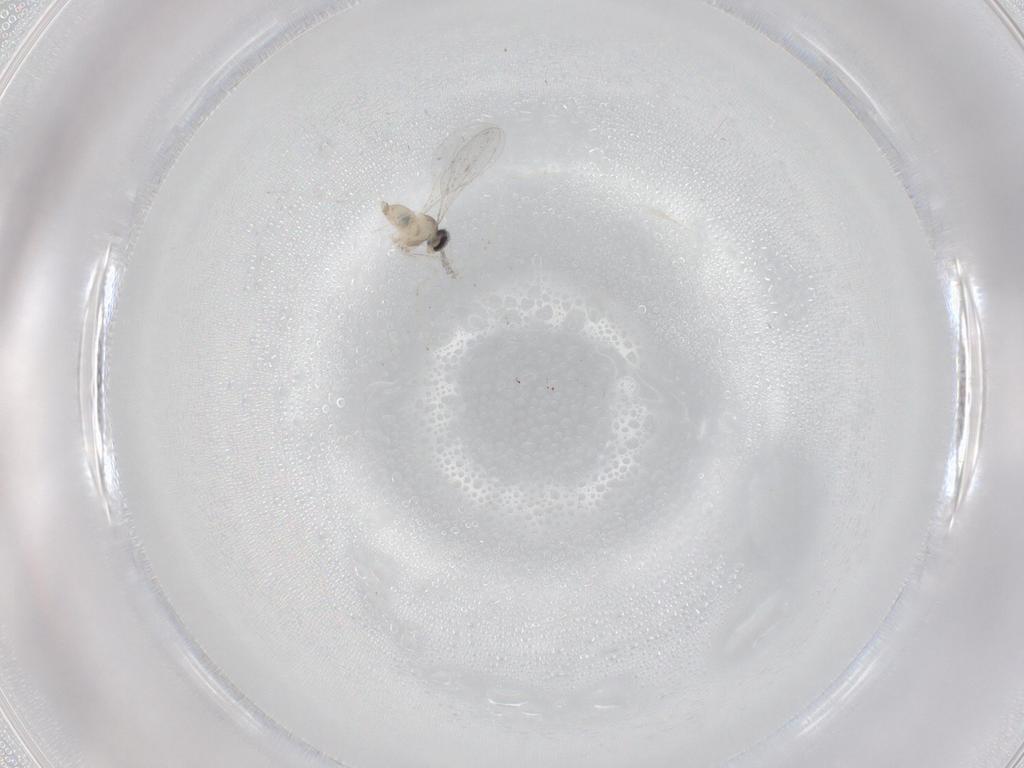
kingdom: Animalia
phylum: Arthropoda
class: Insecta
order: Diptera
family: Cecidomyiidae
